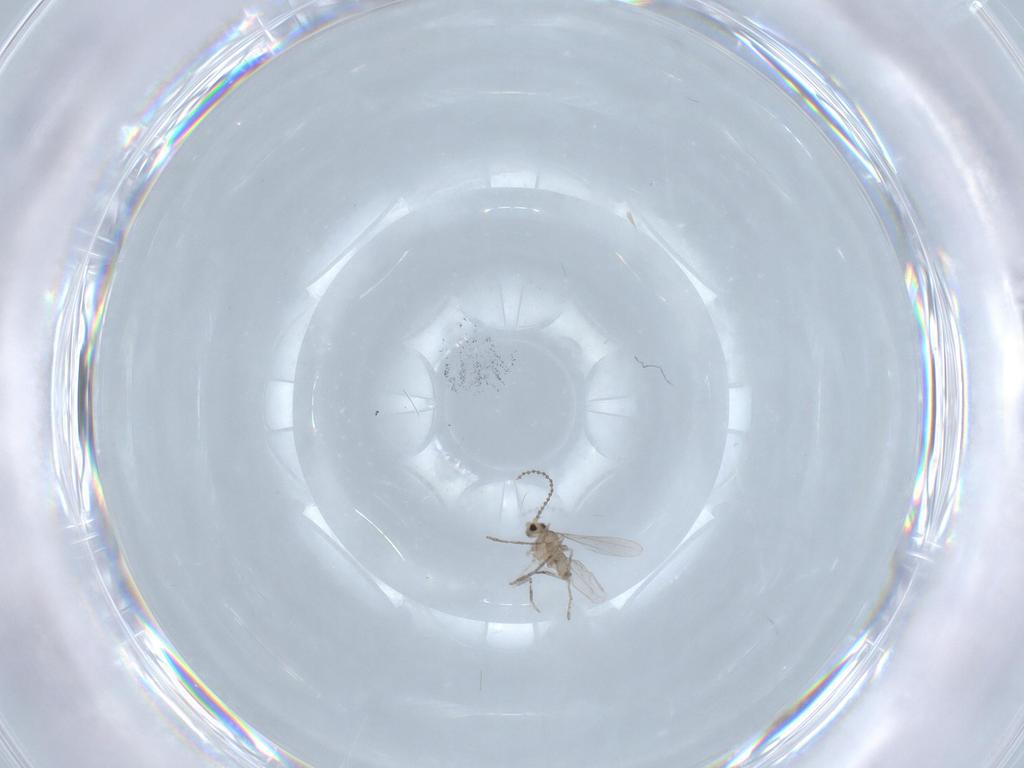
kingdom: Animalia
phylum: Arthropoda
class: Insecta
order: Diptera
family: Cecidomyiidae
